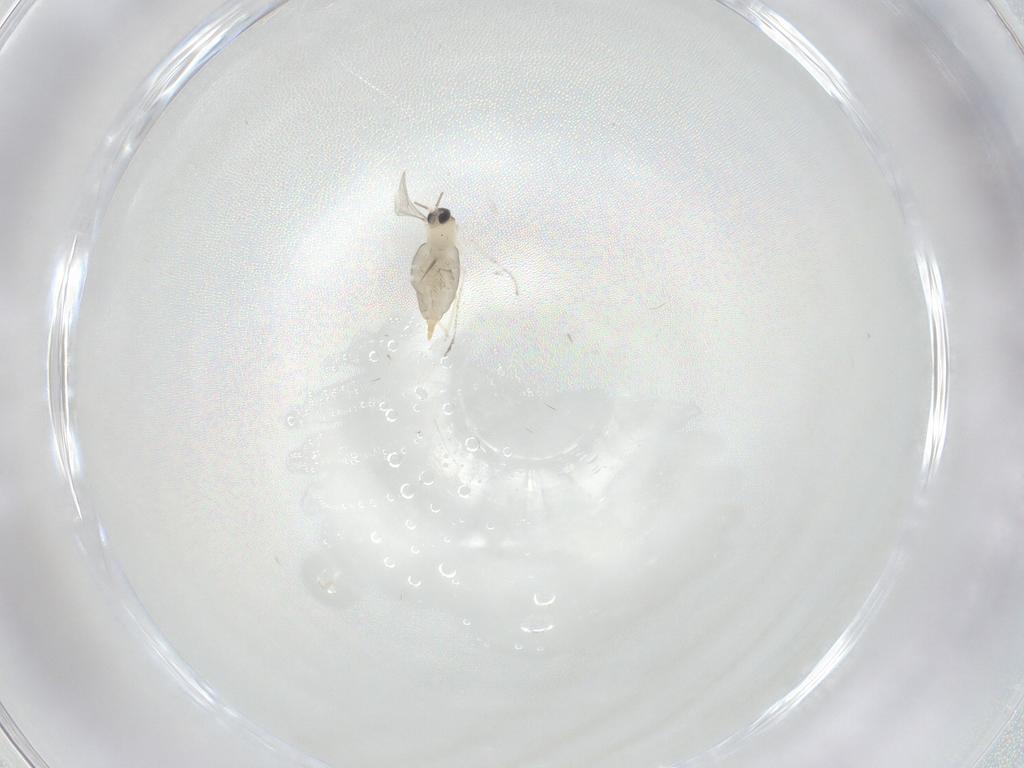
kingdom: Animalia
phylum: Arthropoda
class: Insecta
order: Diptera
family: Cecidomyiidae
